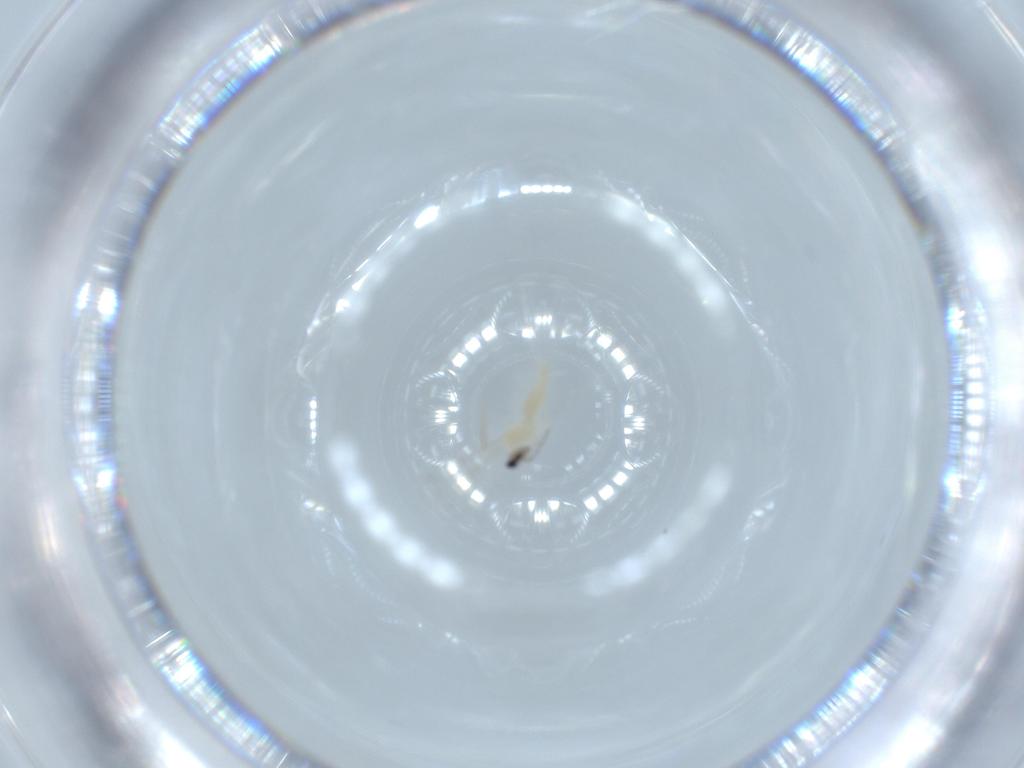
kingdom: Animalia
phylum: Arthropoda
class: Insecta
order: Diptera
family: Cecidomyiidae
